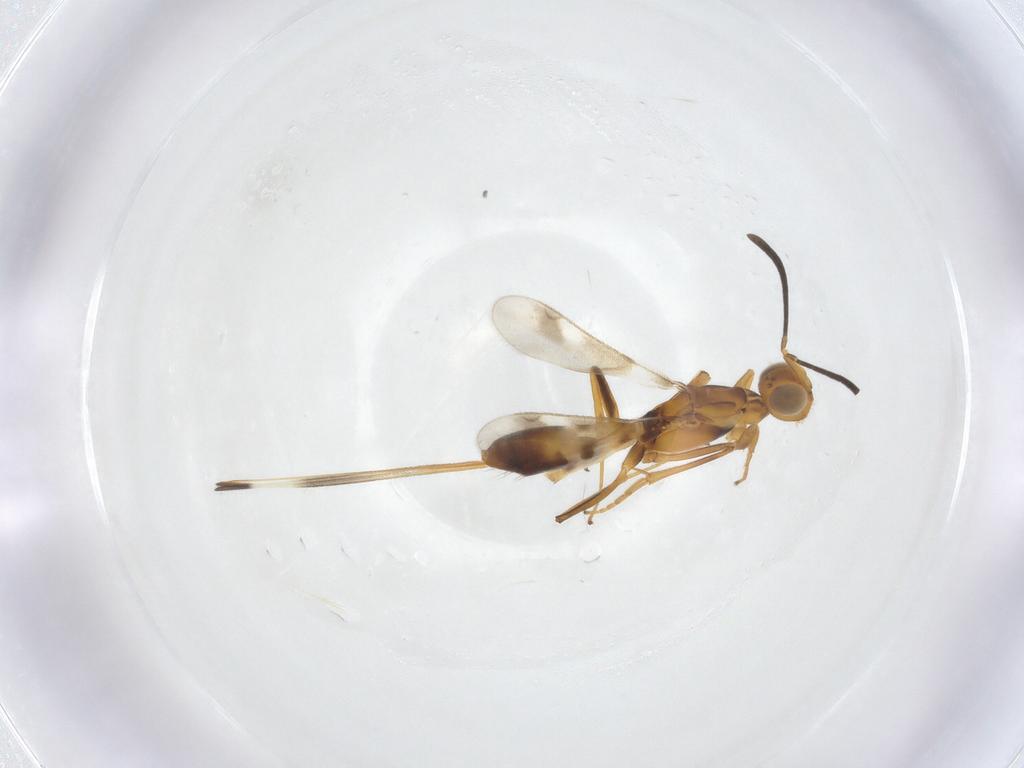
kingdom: Animalia
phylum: Arthropoda
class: Insecta
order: Hymenoptera
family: Eupelmidae
